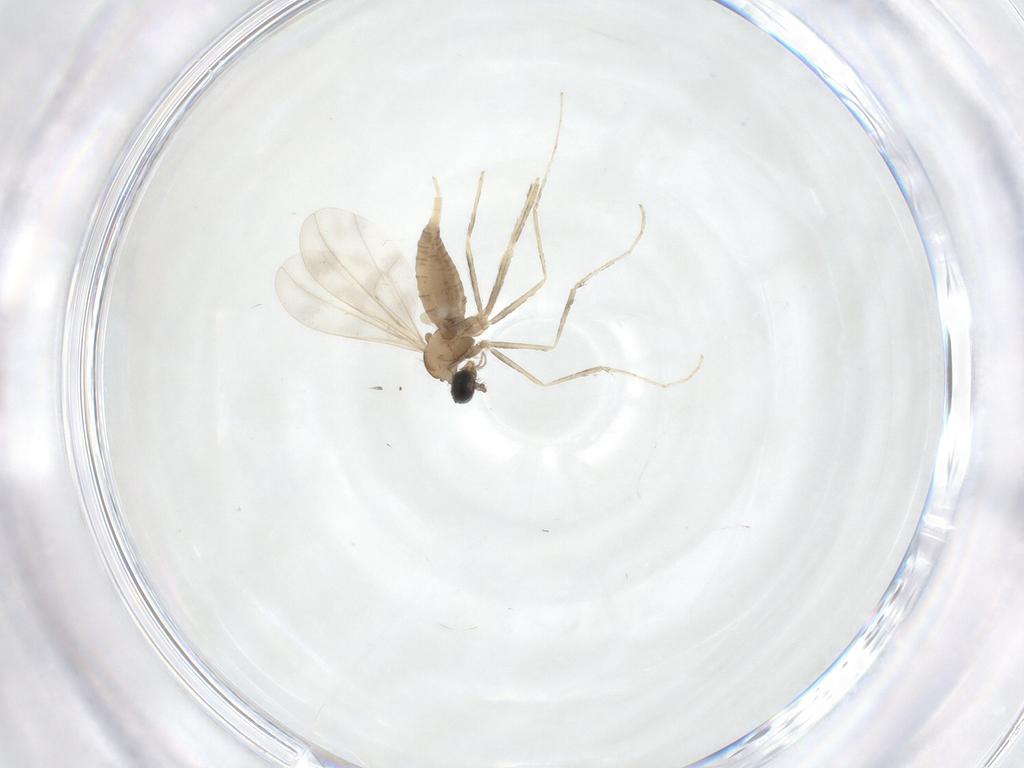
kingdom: Animalia
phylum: Arthropoda
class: Insecta
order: Diptera
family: Cecidomyiidae
